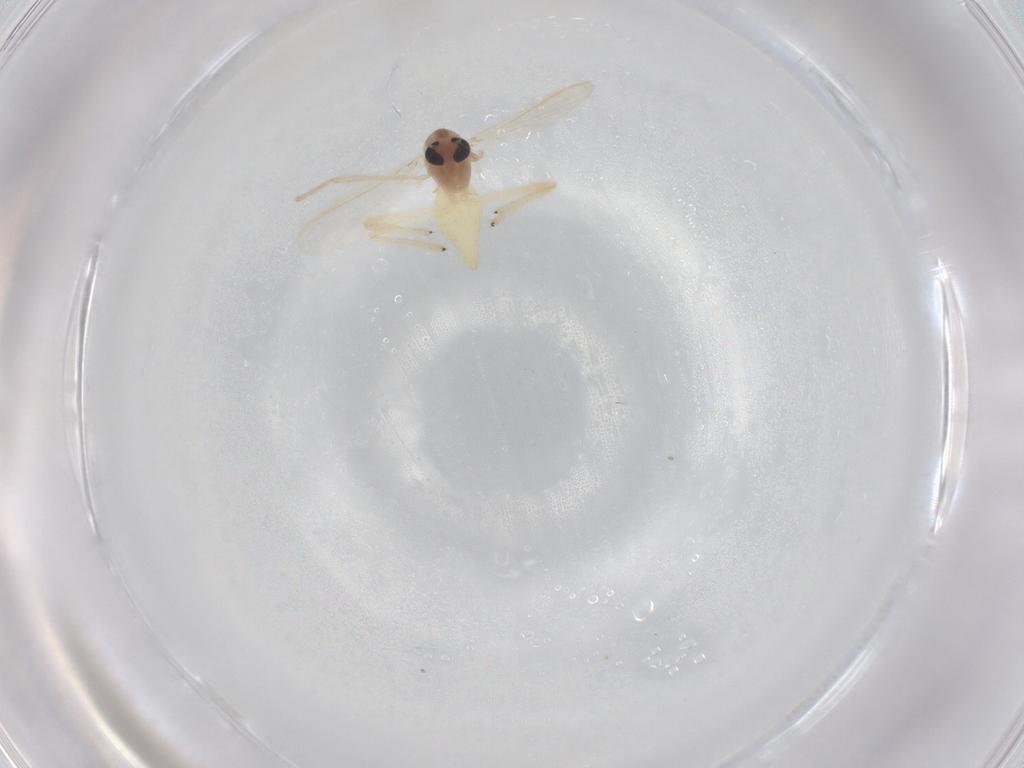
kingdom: Animalia
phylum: Arthropoda
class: Insecta
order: Diptera
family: Chironomidae
